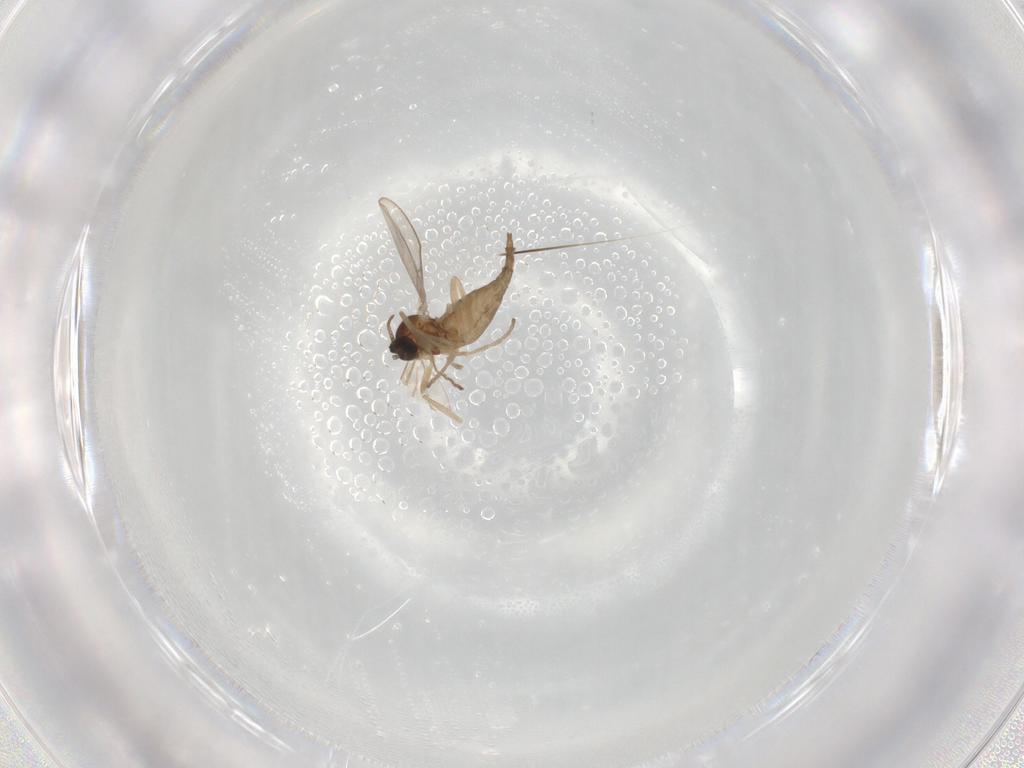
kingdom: Animalia
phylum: Arthropoda
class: Insecta
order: Diptera
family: Cecidomyiidae
